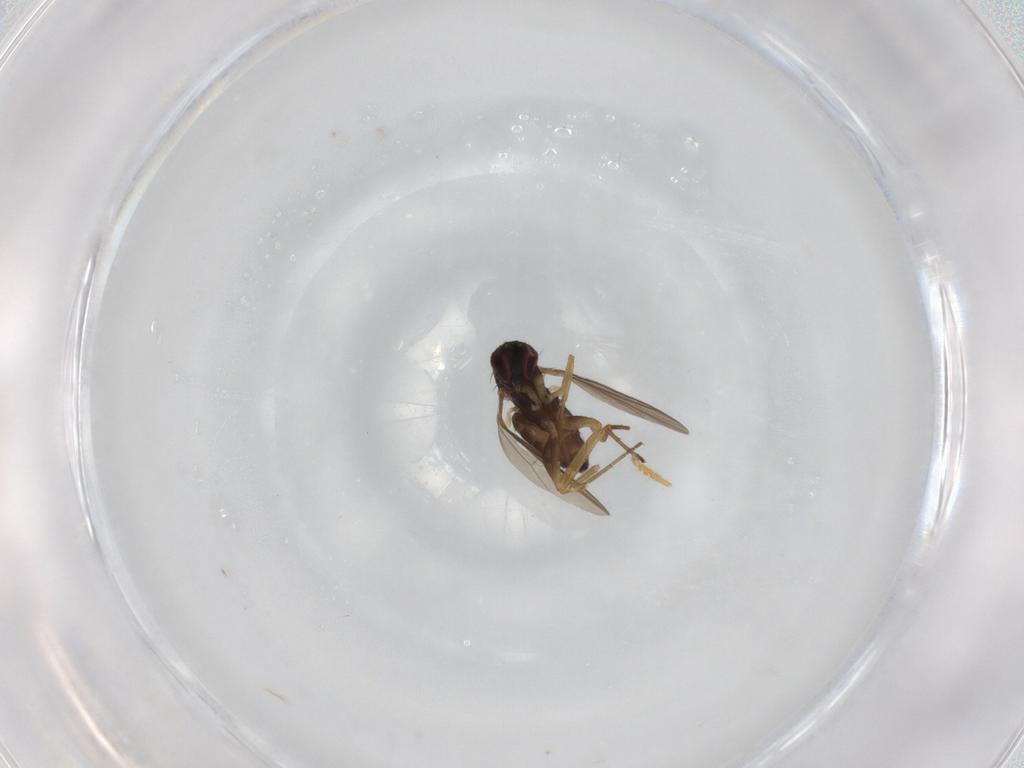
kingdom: Animalia
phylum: Arthropoda
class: Insecta
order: Diptera
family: Dolichopodidae
